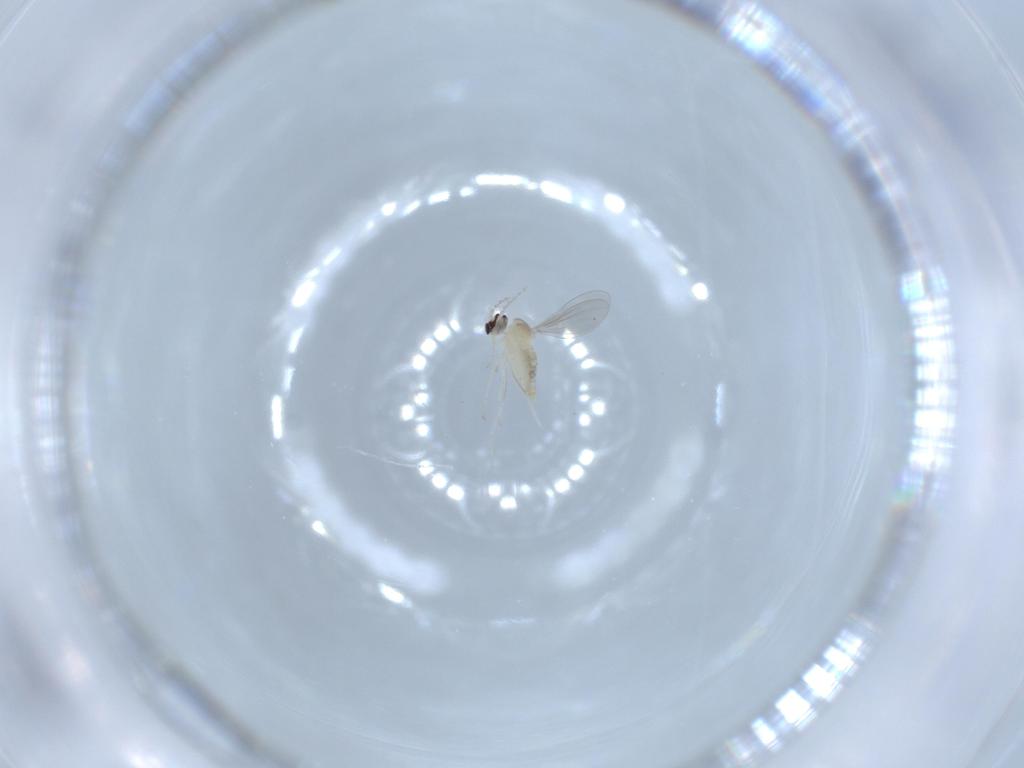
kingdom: Animalia
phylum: Arthropoda
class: Insecta
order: Diptera
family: Cecidomyiidae
